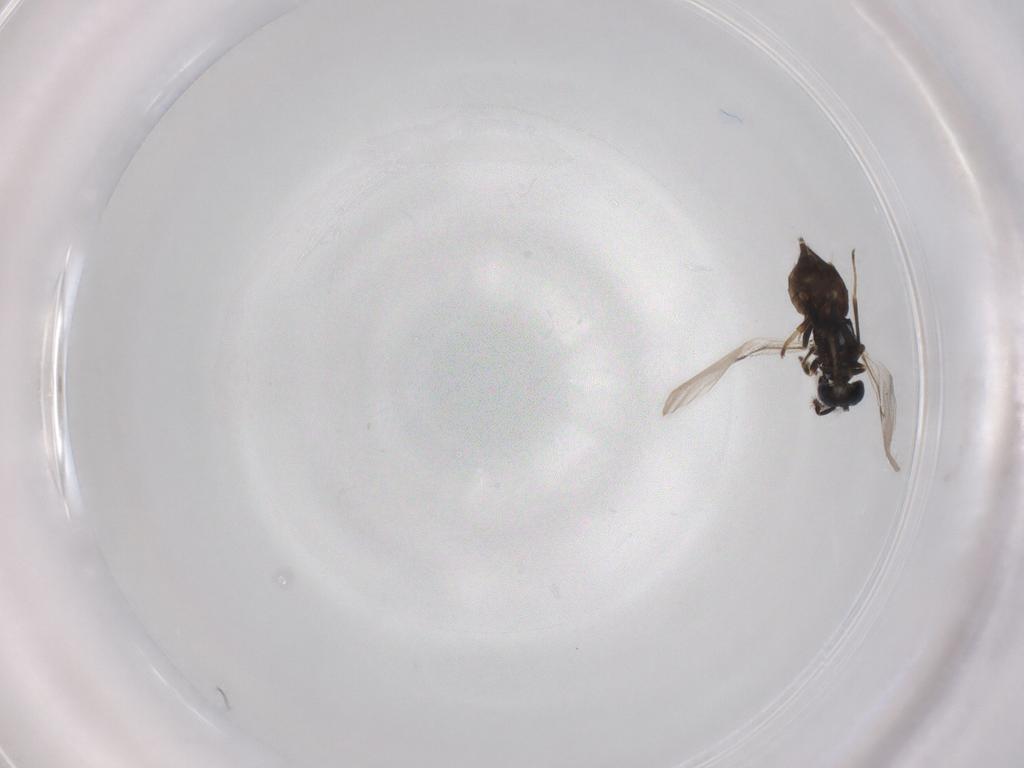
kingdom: Animalia
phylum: Arthropoda
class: Insecta
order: Hymenoptera
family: Encyrtidae
